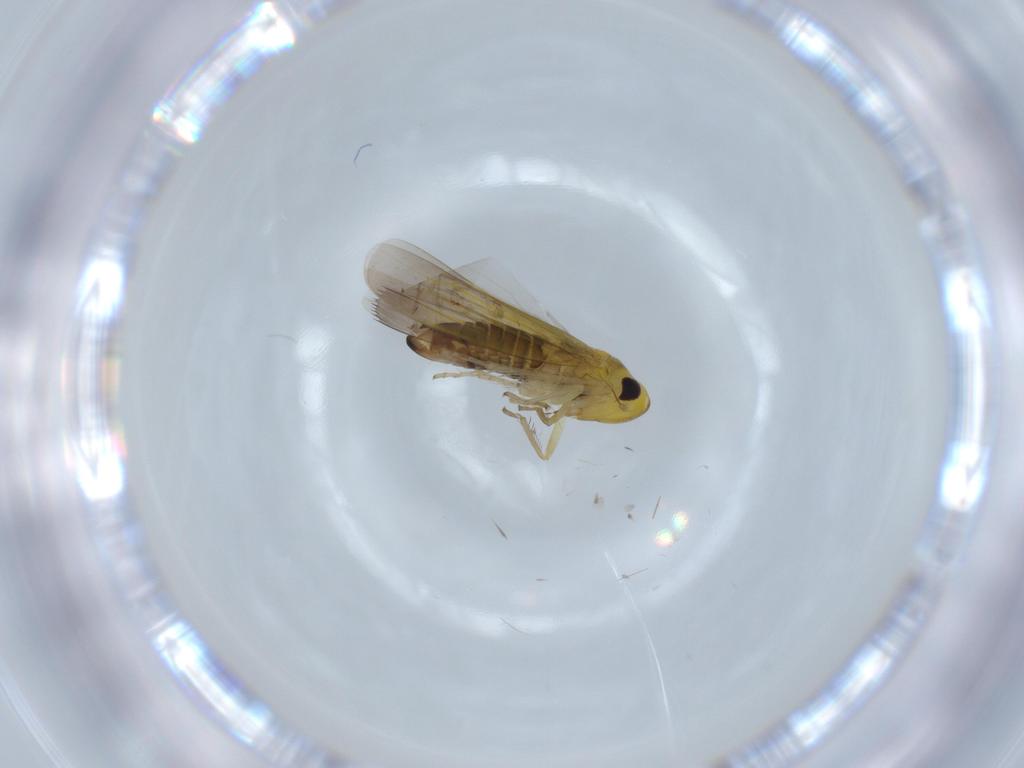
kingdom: Animalia
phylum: Arthropoda
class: Insecta
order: Hemiptera
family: Cicadellidae
